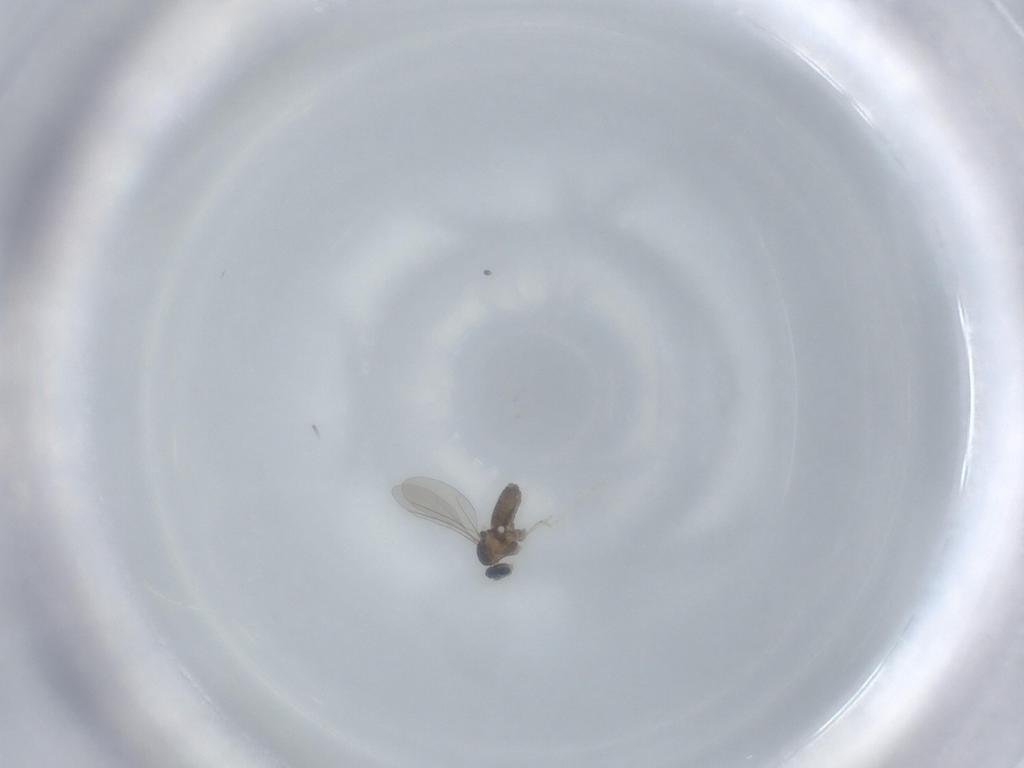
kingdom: Animalia
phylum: Arthropoda
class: Insecta
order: Diptera
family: Cecidomyiidae
